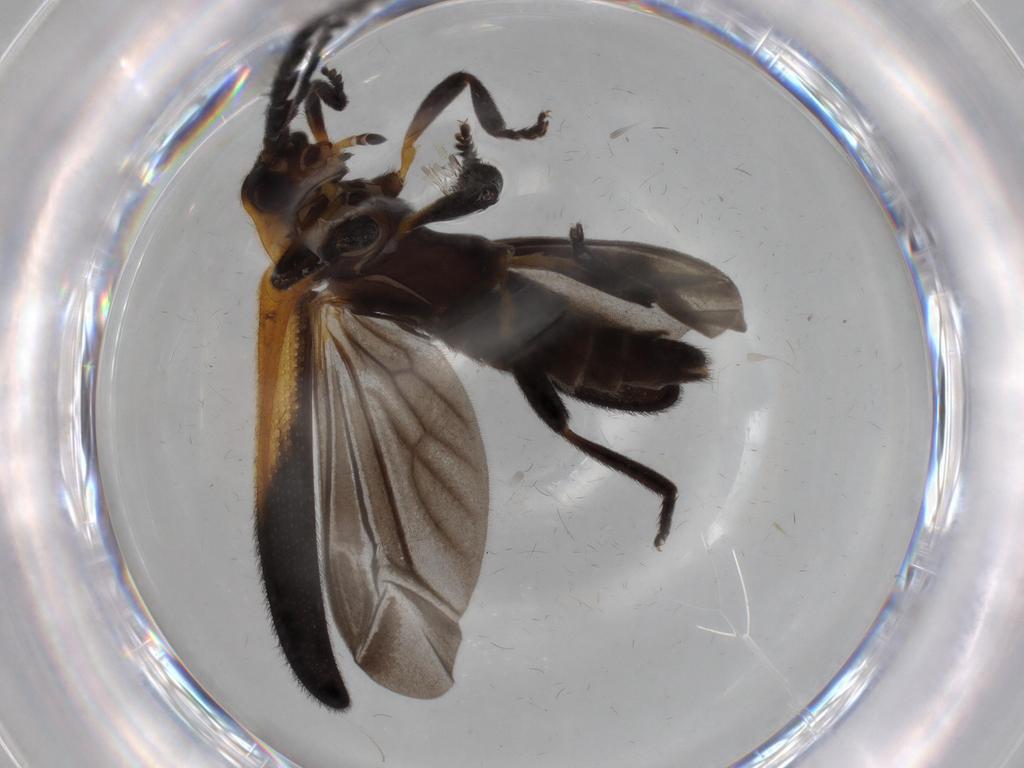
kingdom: Animalia
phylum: Arthropoda
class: Insecta
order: Coleoptera
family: Lycidae
